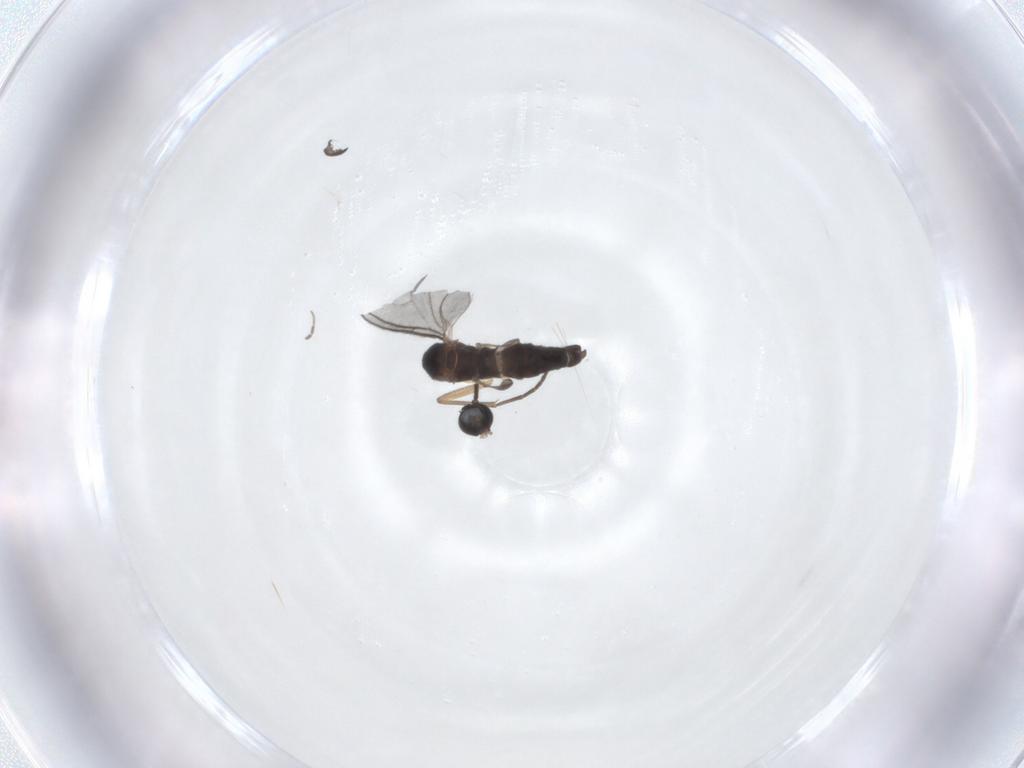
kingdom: Animalia
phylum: Arthropoda
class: Insecta
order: Diptera
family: Sciaridae
